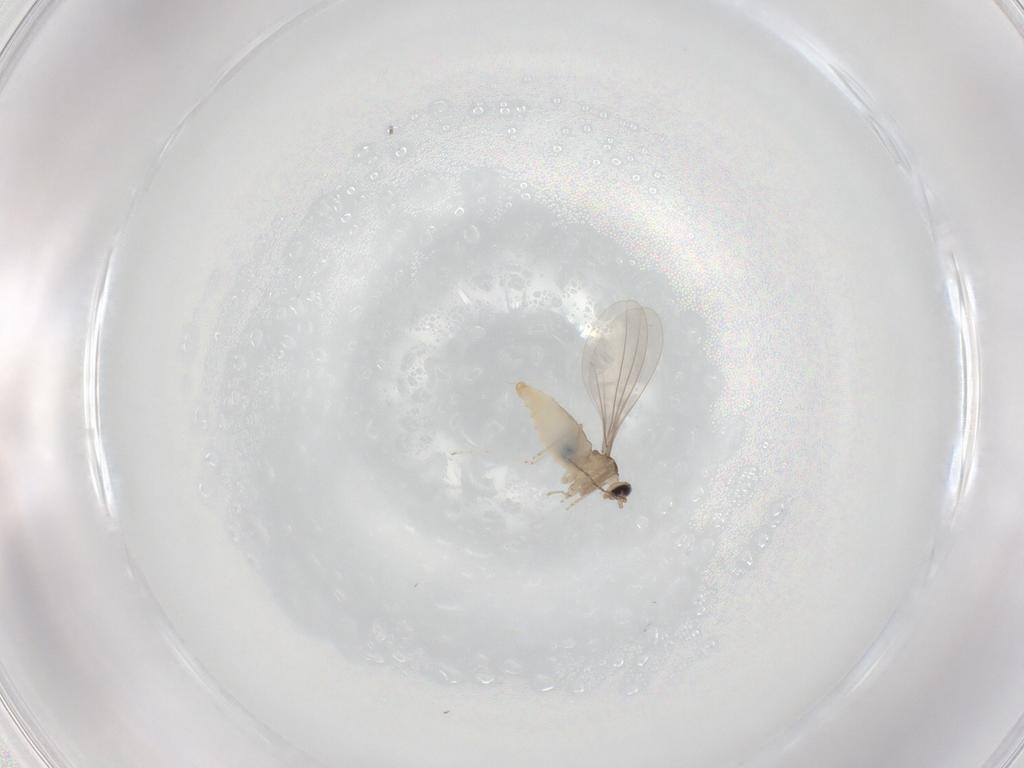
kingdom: Animalia
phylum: Arthropoda
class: Insecta
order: Diptera
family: Cecidomyiidae
